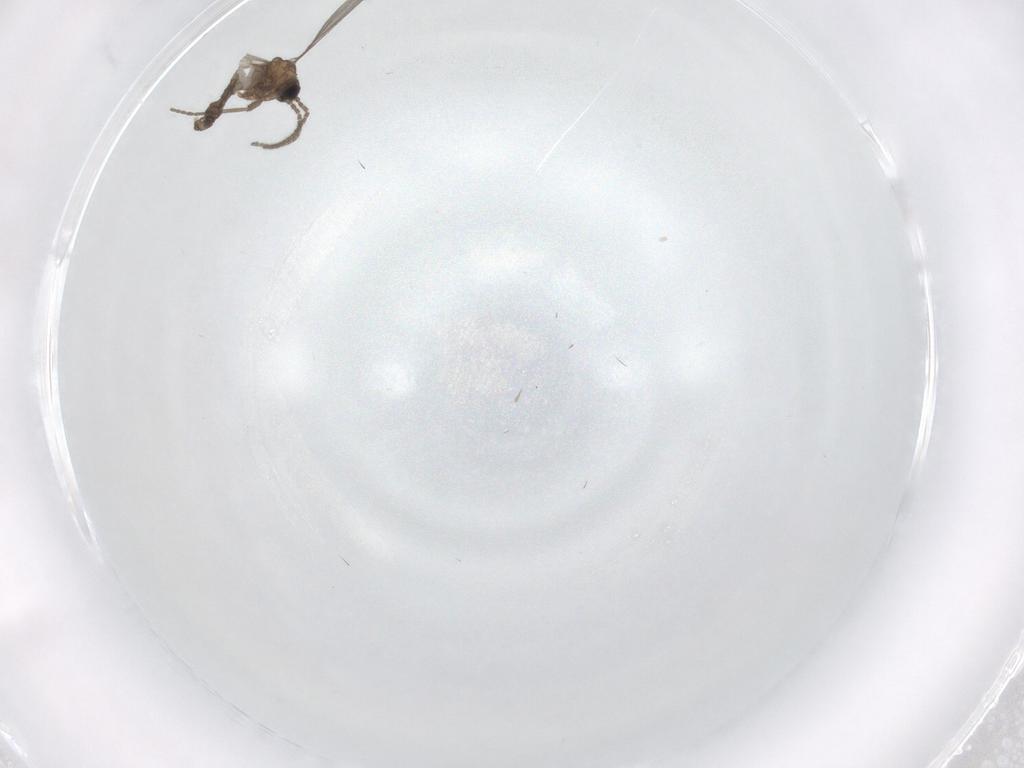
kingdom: Animalia
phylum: Arthropoda
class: Insecta
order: Diptera
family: Sciaridae
